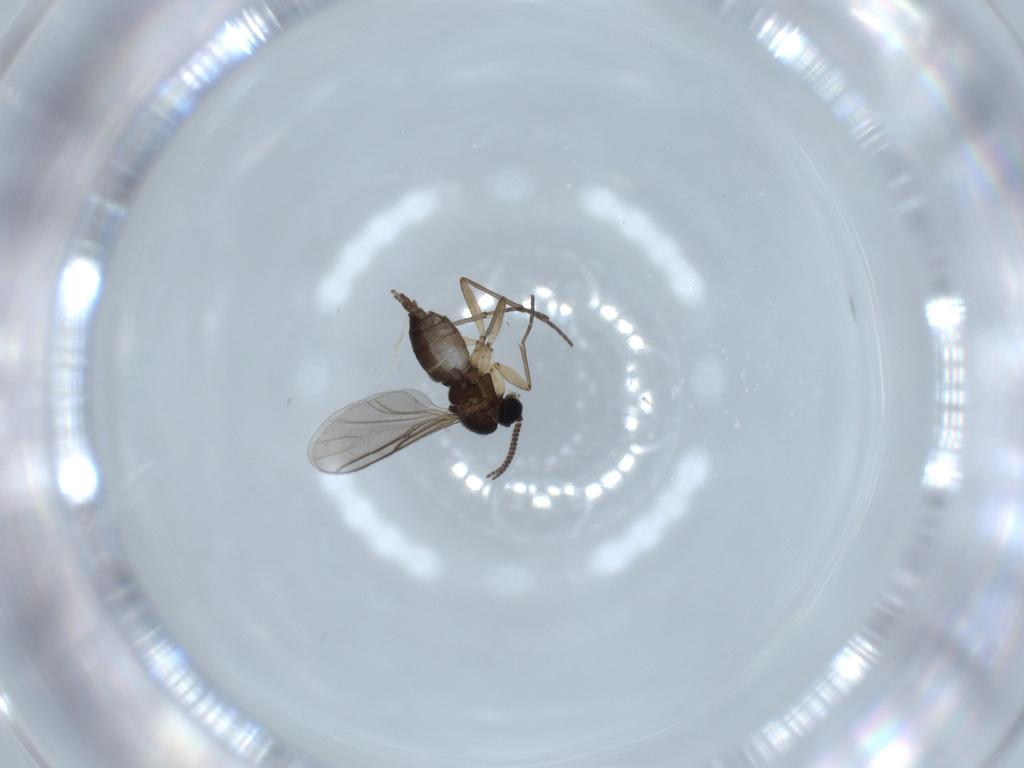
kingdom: Animalia
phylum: Arthropoda
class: Insecta
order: Diptera
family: Sciaridae
